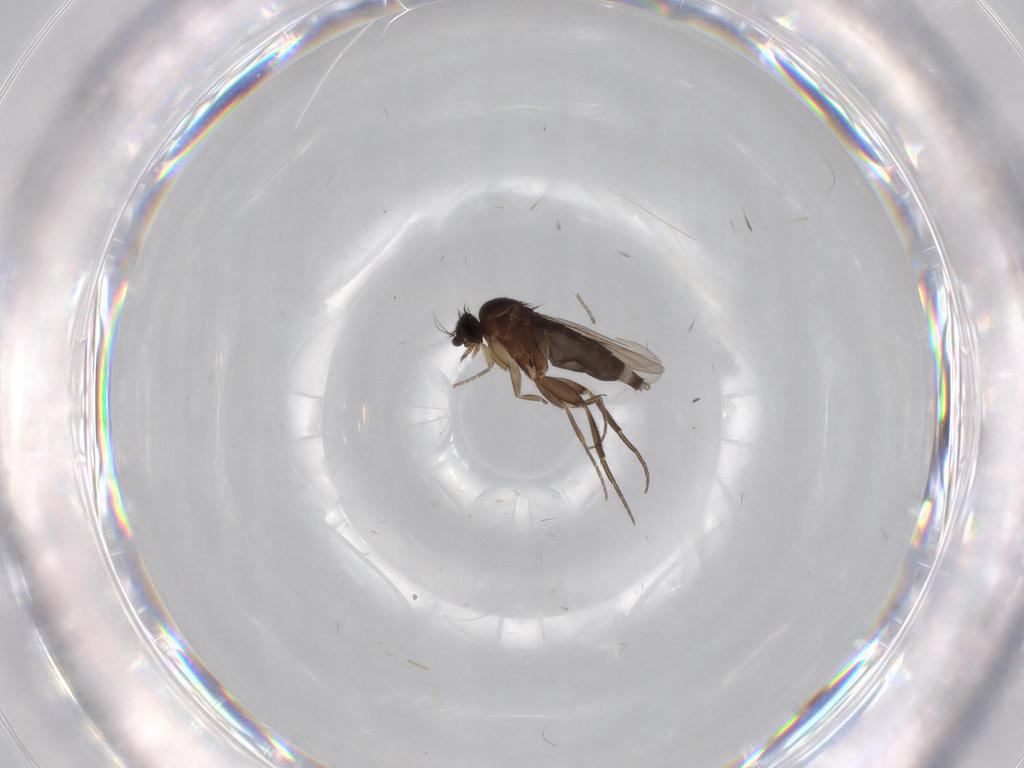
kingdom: Animalia
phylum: Arthropoda
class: Insecta
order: Diptera
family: Phoridae
